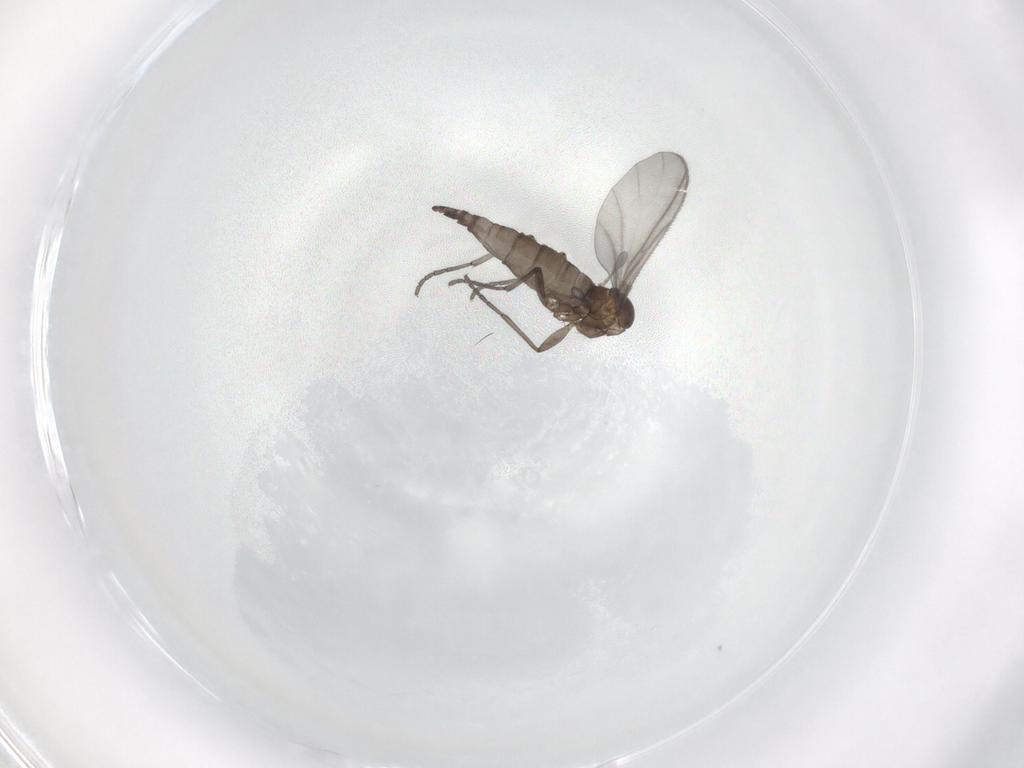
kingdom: Animalia
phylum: Arthropoda
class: Insecta
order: Diptera
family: Sciaridae
